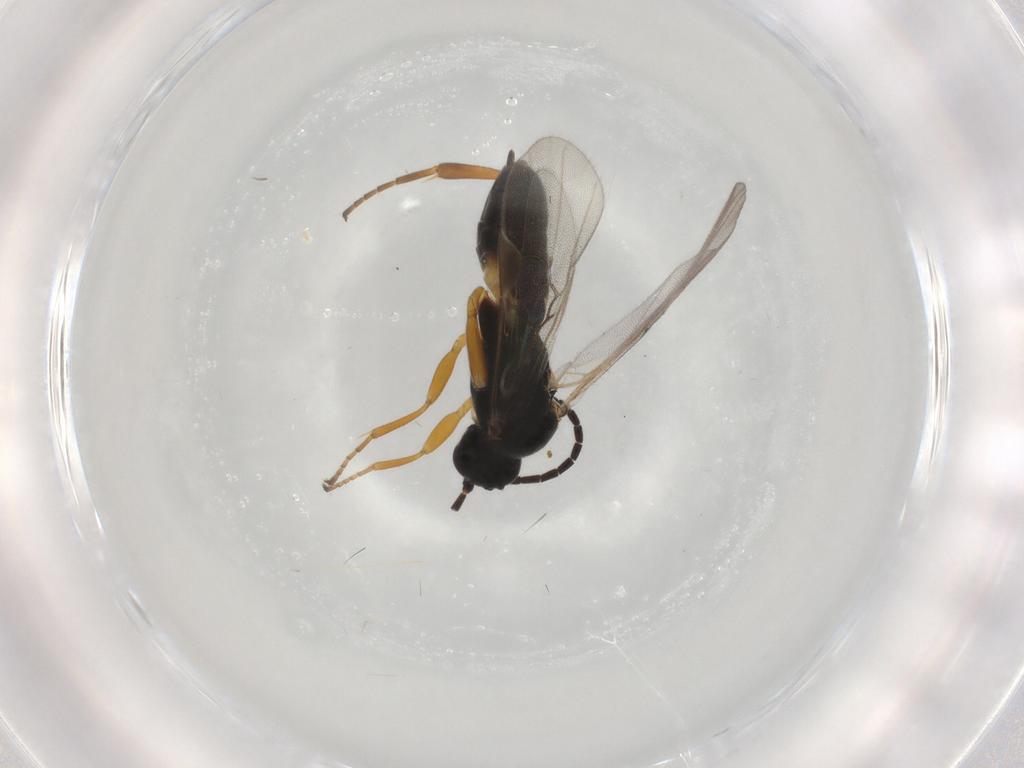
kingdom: Animalia
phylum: Arthropoda
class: Insecta
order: Hymenoptera
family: Braconidae
